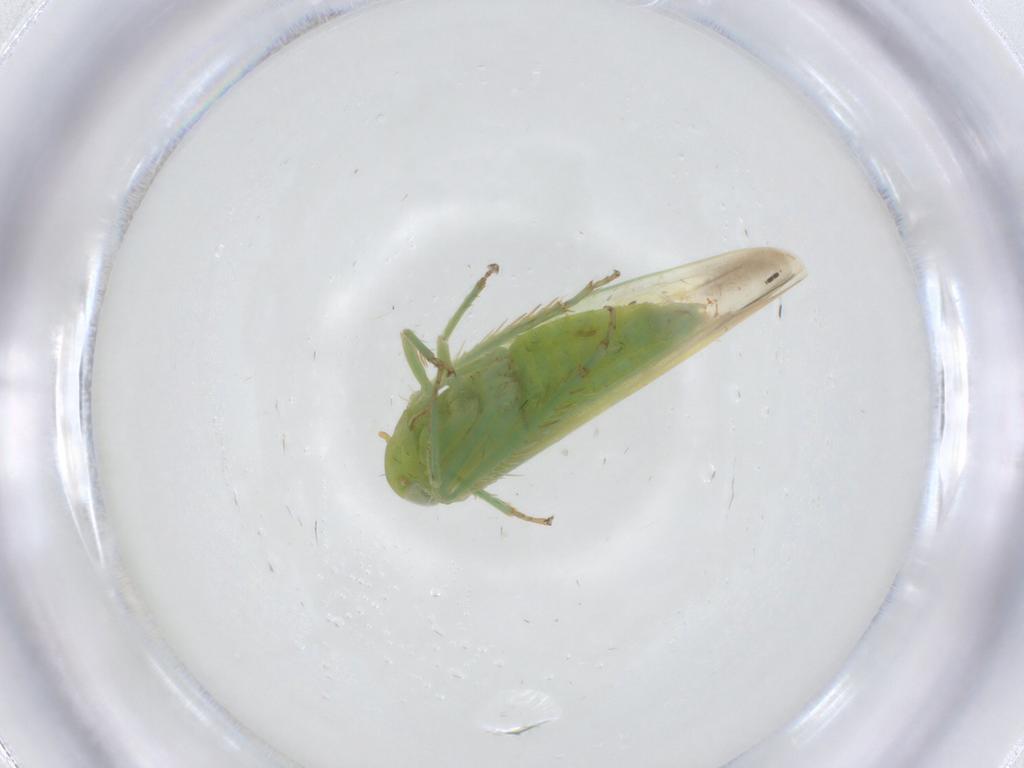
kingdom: Animalia
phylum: Arthropoda
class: Insecta
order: Hemiptera
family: Cicadellidae
